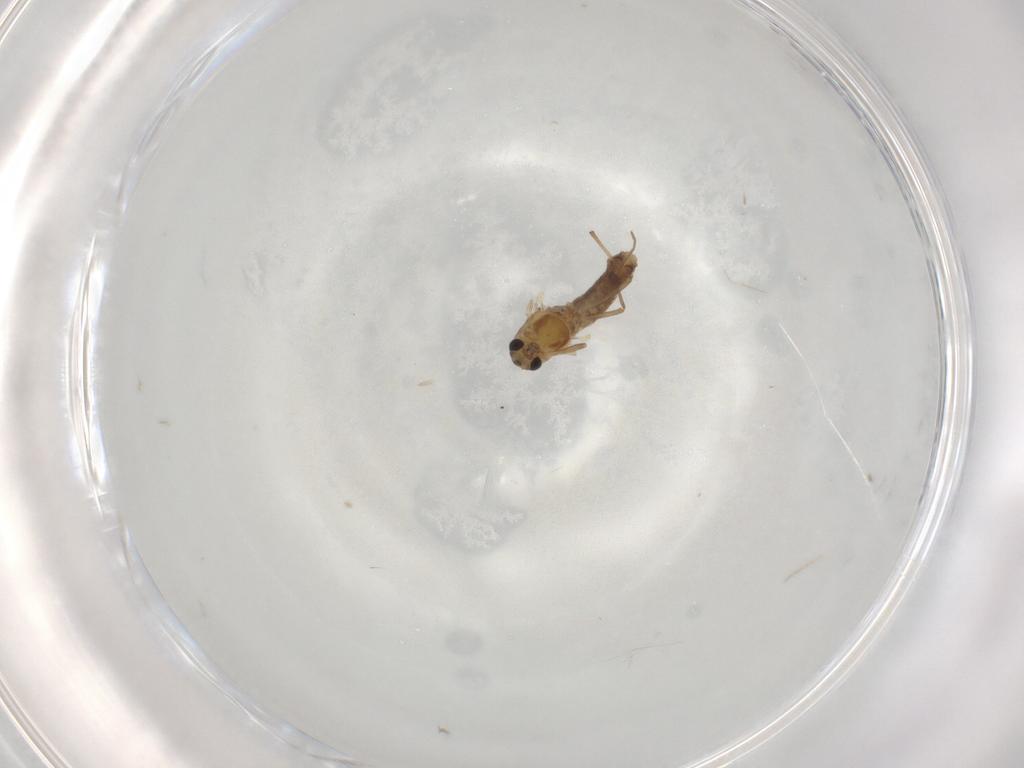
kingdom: Animalia
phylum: Arthropoda
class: Insecta
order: Diptera
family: Chironomidae
